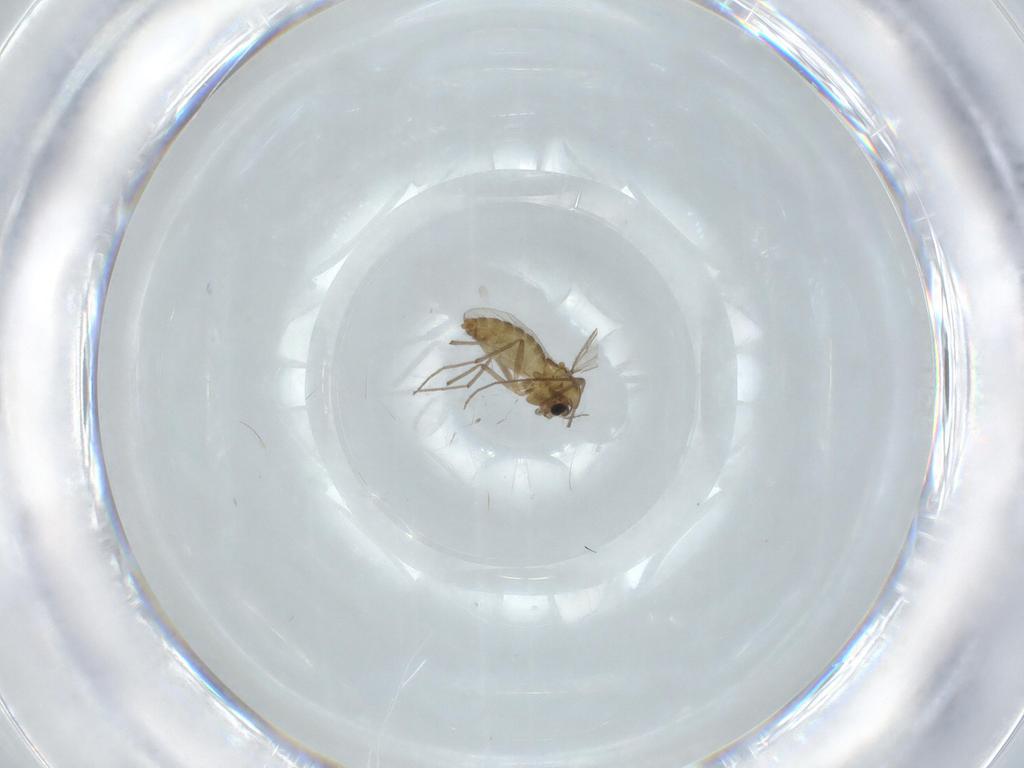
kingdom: Animalia
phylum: Arthropoda
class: Insecta
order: Diptera
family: Chironomidae
